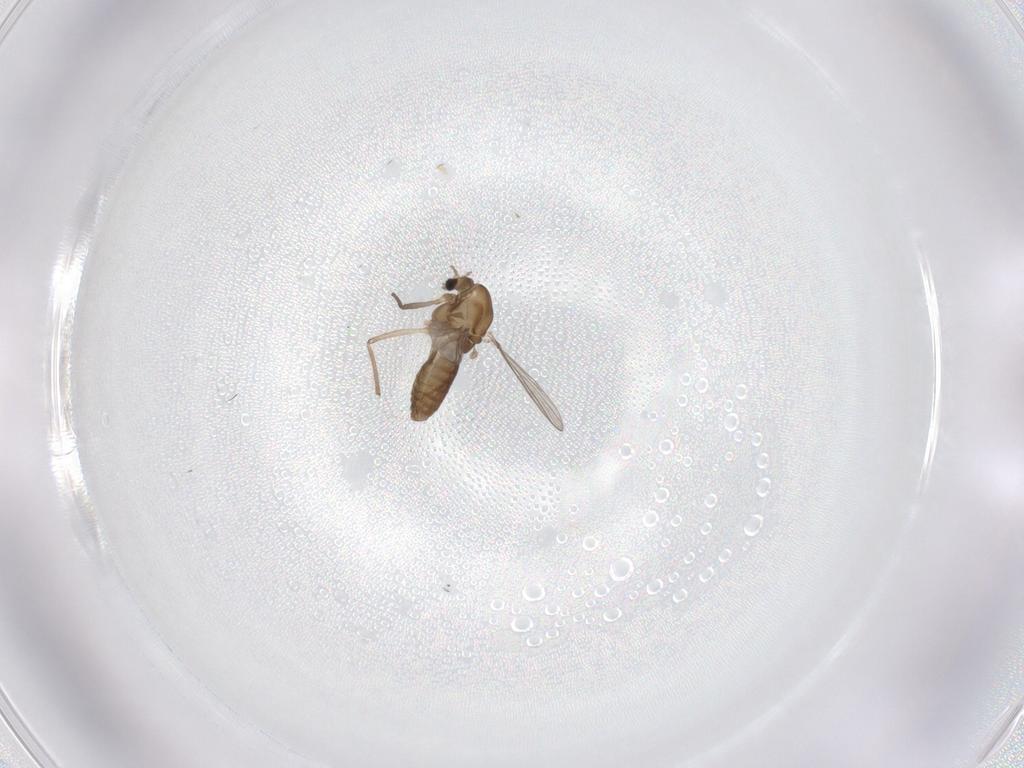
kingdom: Animalia
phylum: Arthropoda
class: Insecta
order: Diptera
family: Chironomidae
